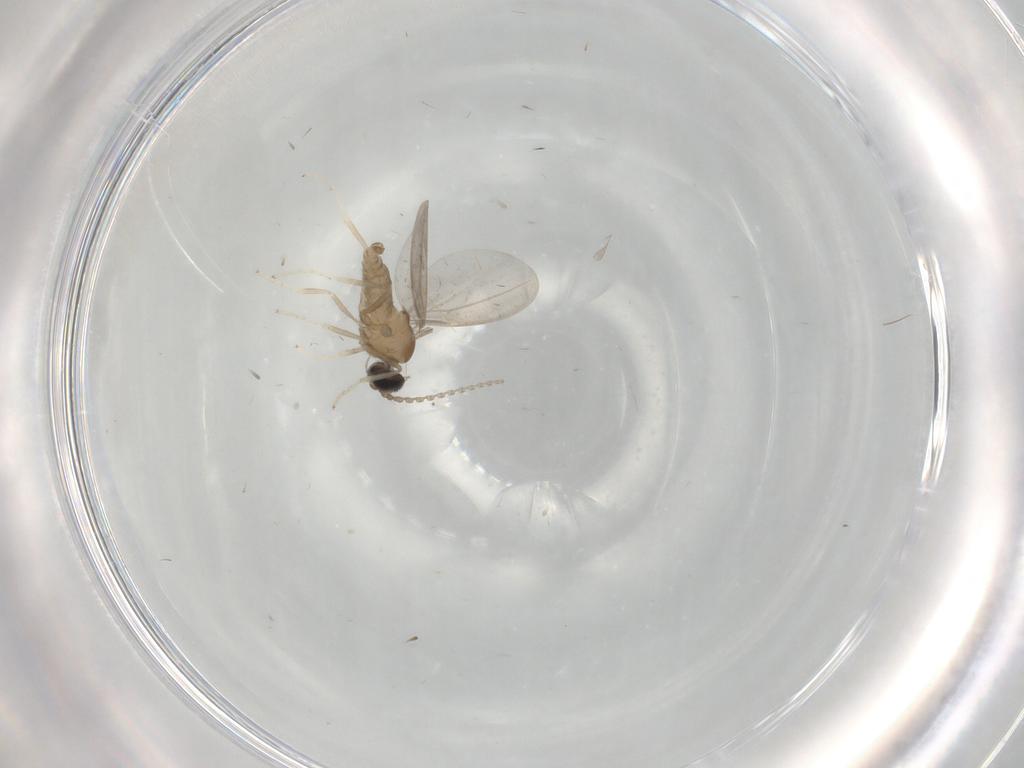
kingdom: Animalia
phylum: Arthropoda
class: Insecta
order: Diptera
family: Cecidomyiidae
